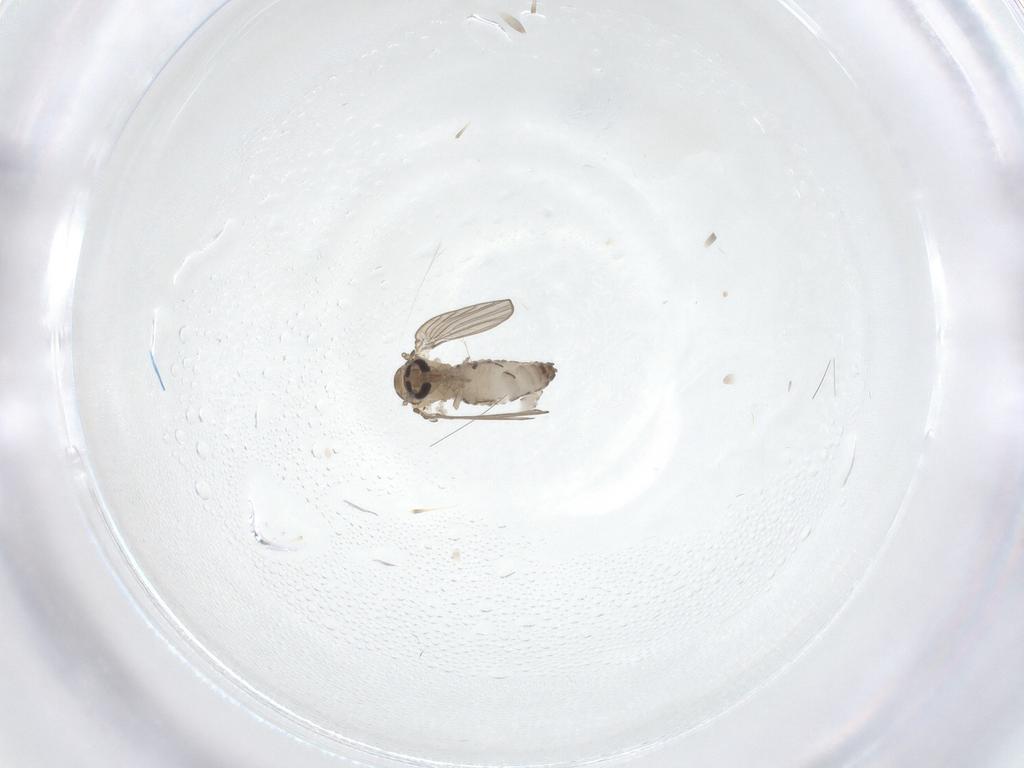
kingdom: Animalia
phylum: Arthropoda
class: Insecta
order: Diptera
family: Psychodidae
